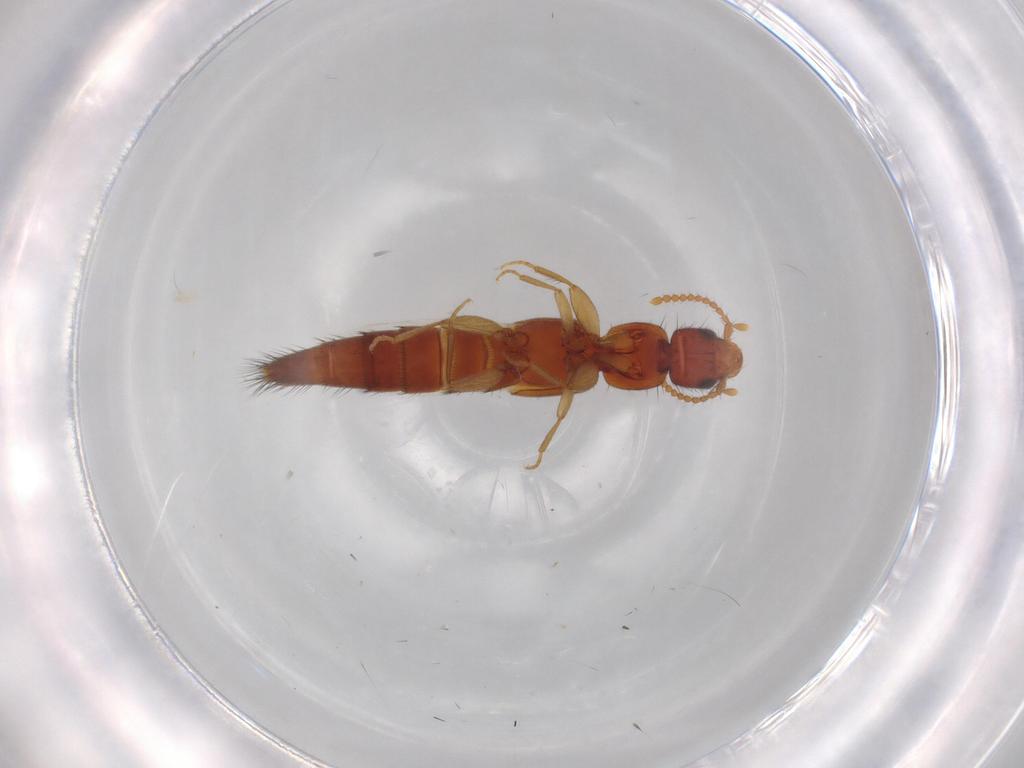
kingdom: Animalia
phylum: Arthropoda
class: Insecta
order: Coleoptera
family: Staphylinidae
